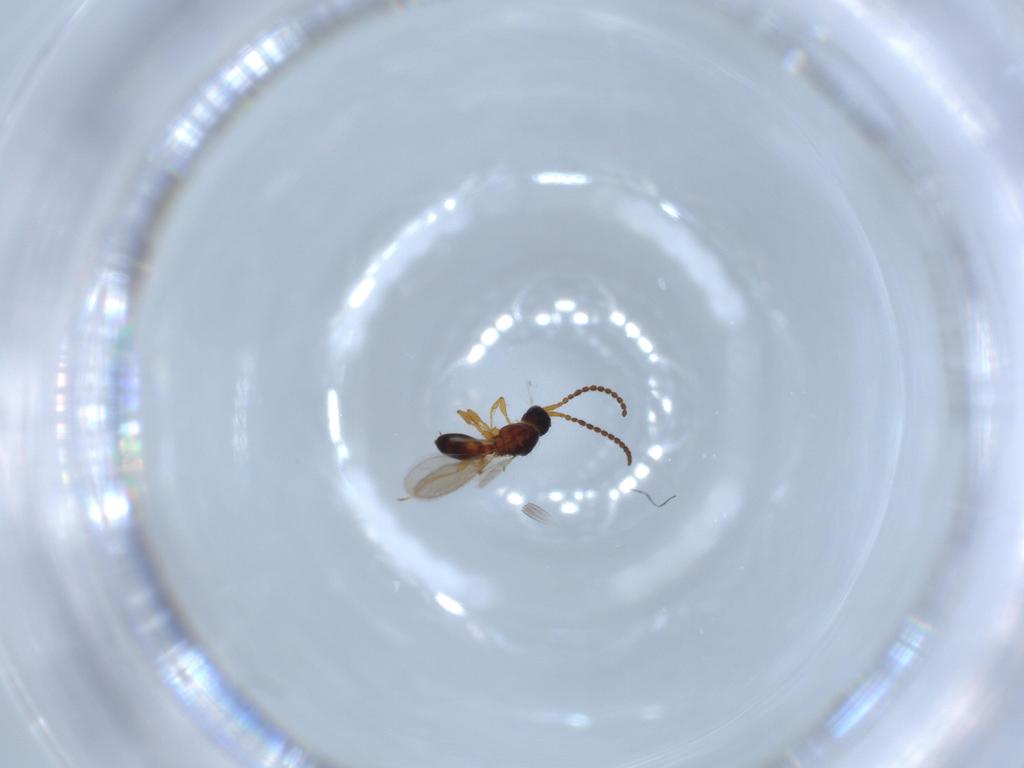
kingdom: Animalia
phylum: Arthropoda
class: Insecta
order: Hymenoptera
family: Diapriidae
